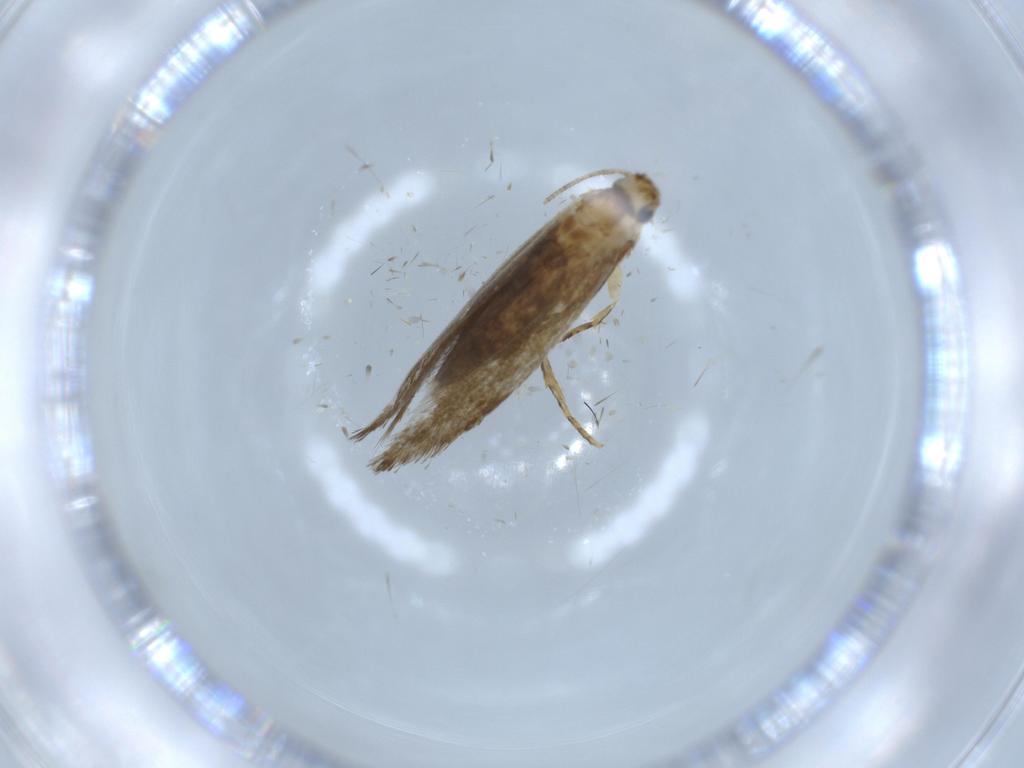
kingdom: Animalia
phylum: Arthropoda
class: Insecta
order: Lepidoptera
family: Tineidae
